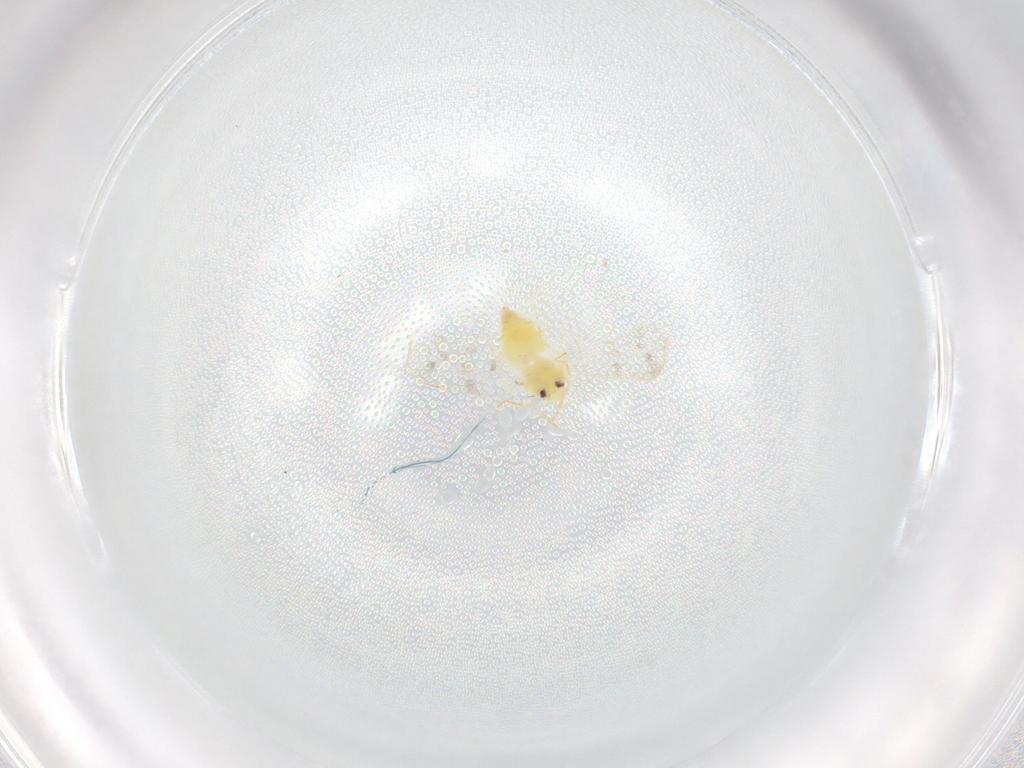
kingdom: Animalia
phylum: Arthropoda
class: Insecta
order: Hemiptera
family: Cicadellidae
